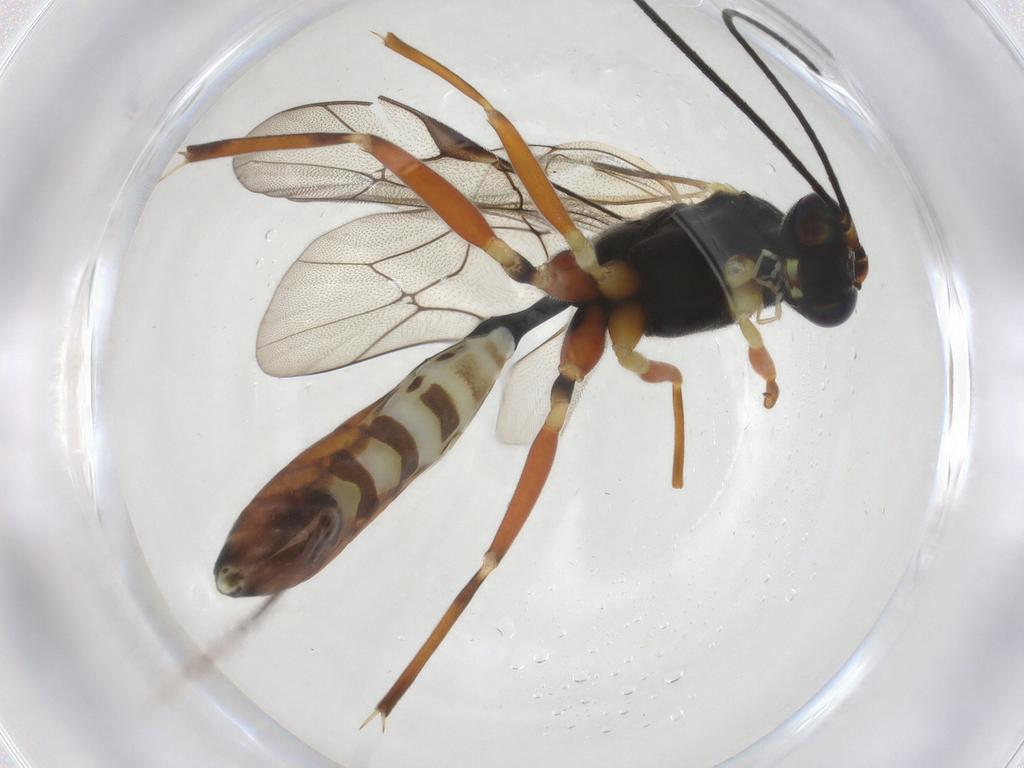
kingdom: Animalia
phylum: Arthropoda
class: Insecta
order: Hymenoptera
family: Ichneumonidae
